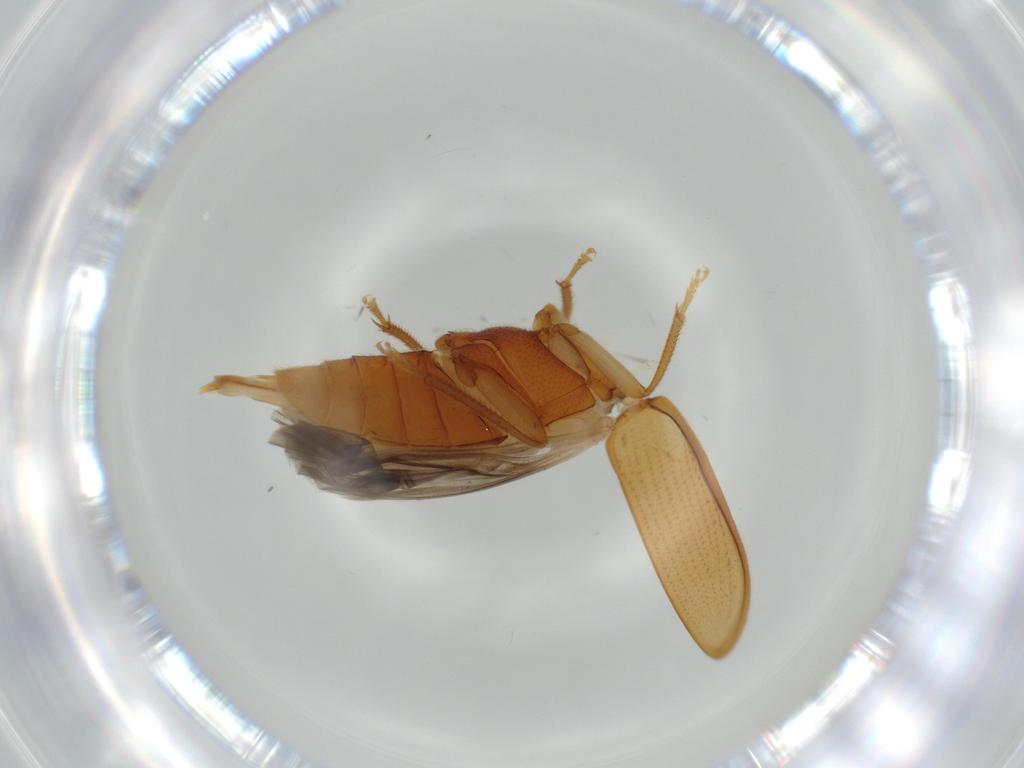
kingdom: Animalia
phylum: Arthropoda
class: Insecta
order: Coleoptera
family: Ptilodactylidae
